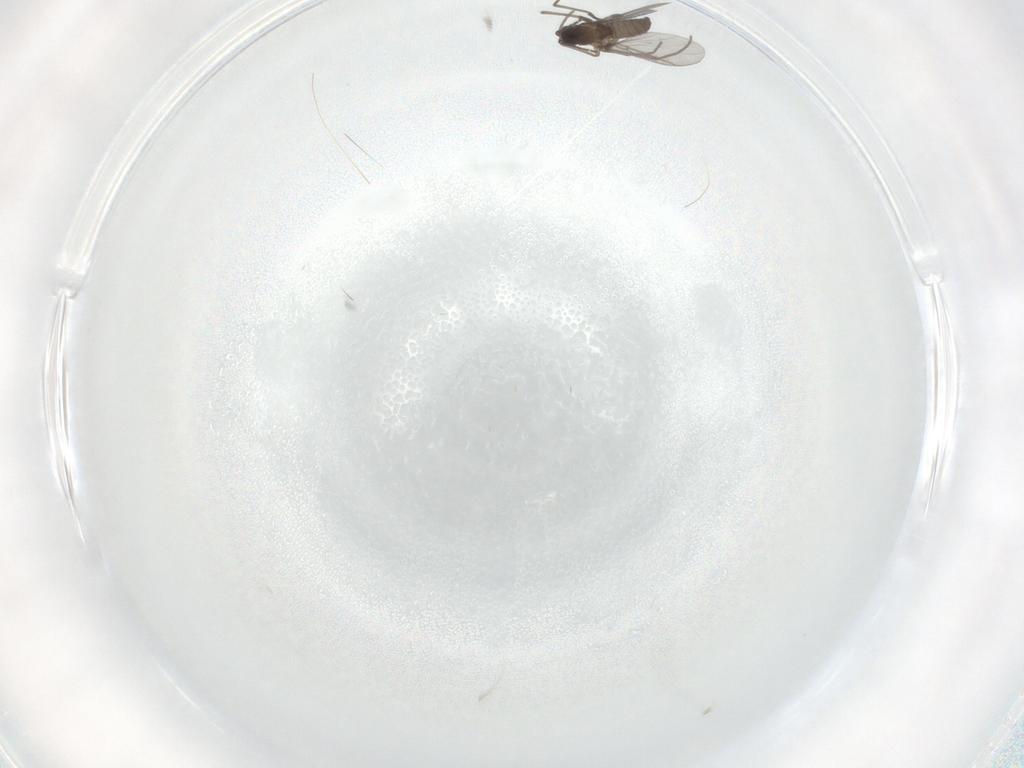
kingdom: Animalia
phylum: Arthropoda
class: Insecta
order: Diptera
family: Sciaridae
